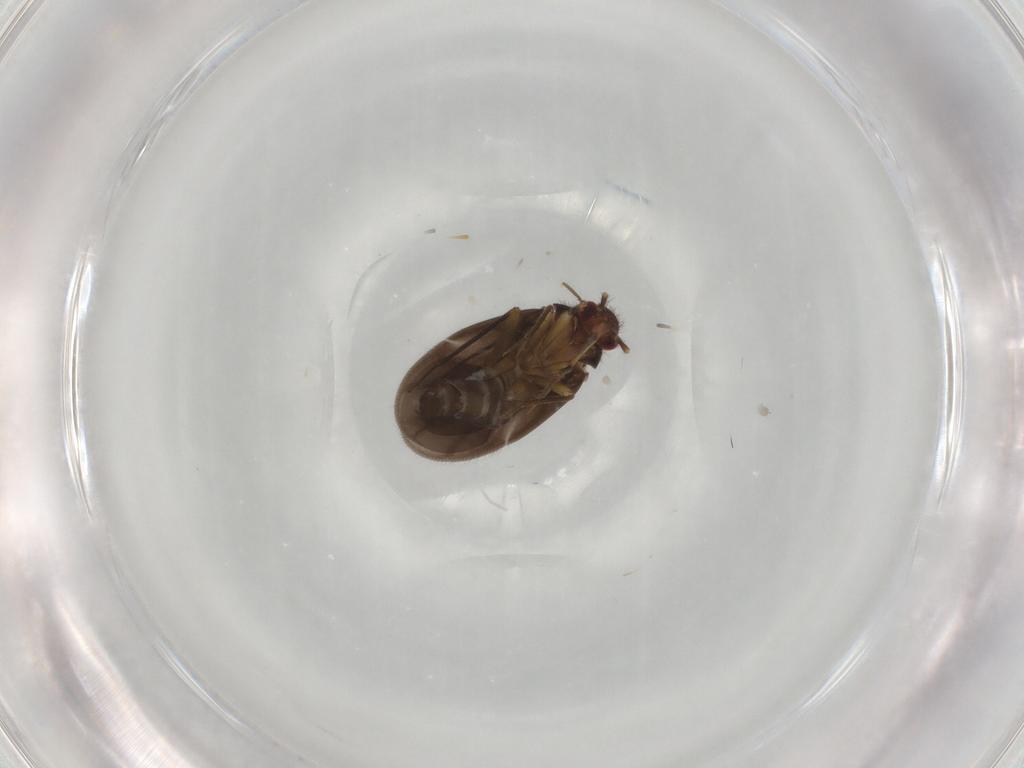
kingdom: Animalia
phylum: Arthropoda
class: Insecta
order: Hemiptera
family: Ceratocombidae
